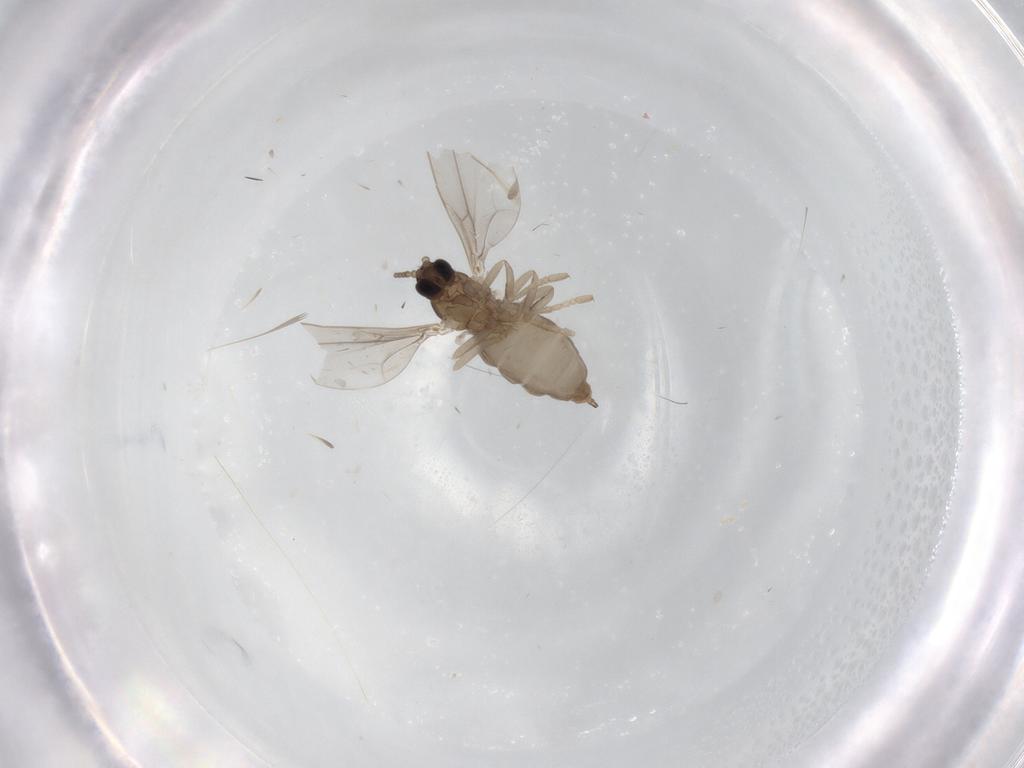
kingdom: Animalia
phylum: Arthropoda
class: Insecta
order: Diptera
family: Cecidomyiidae
